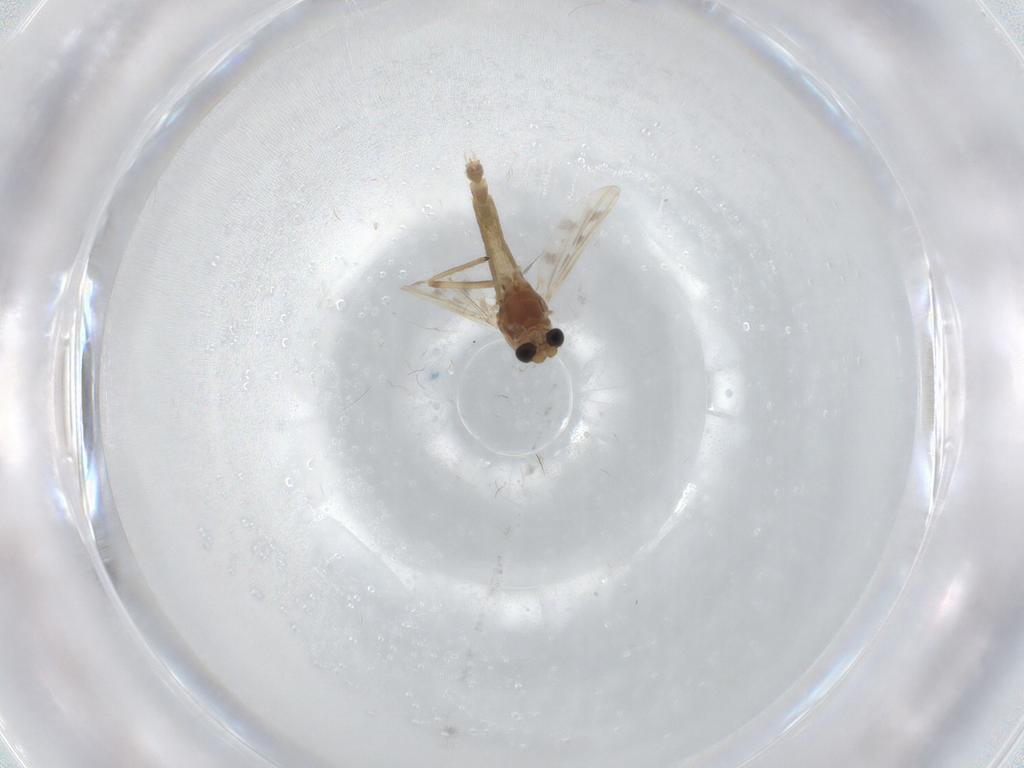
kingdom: Animalia
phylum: Arthropoda
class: Insecta
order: Diptera
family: Chironomidae
